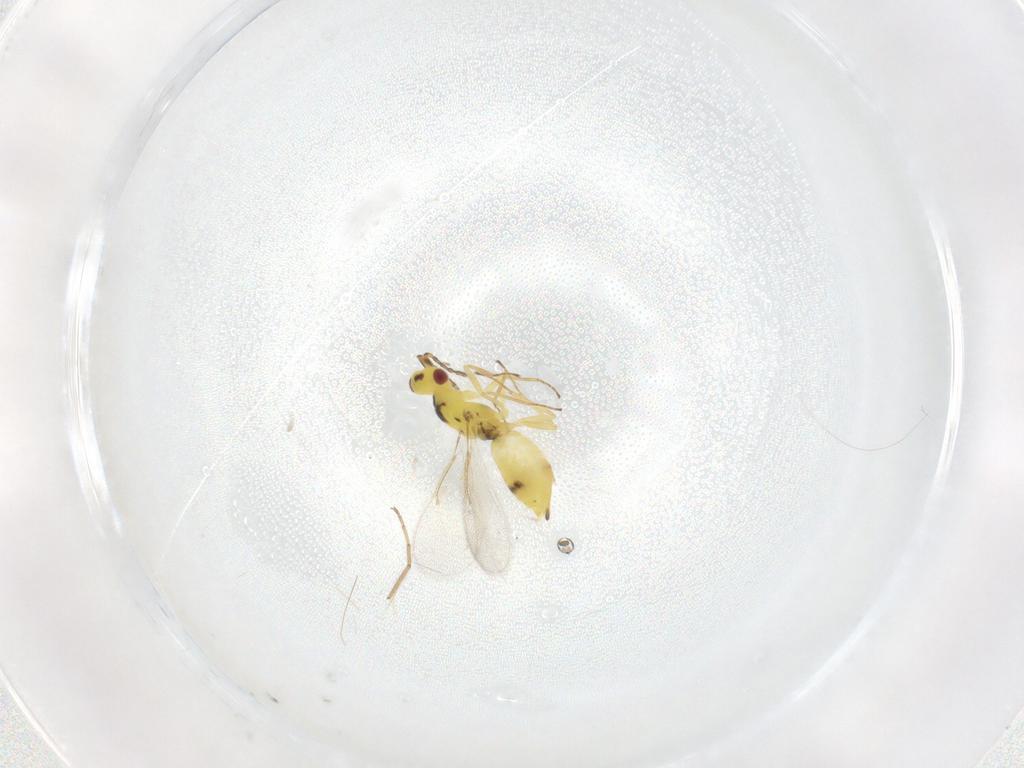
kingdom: Animalia
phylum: Arthropoda
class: Insecta
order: Hymenoptera
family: Eulophidae
